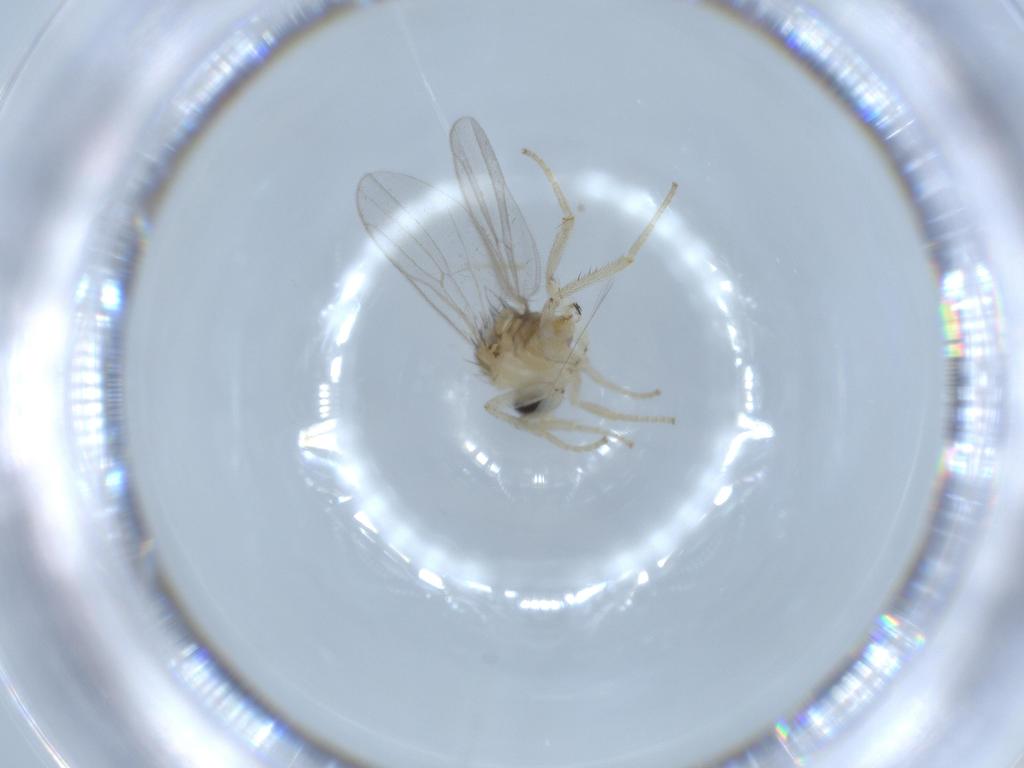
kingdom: Animalia
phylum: Arthropoda
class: Insecta
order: Diptera
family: Hybotidae
